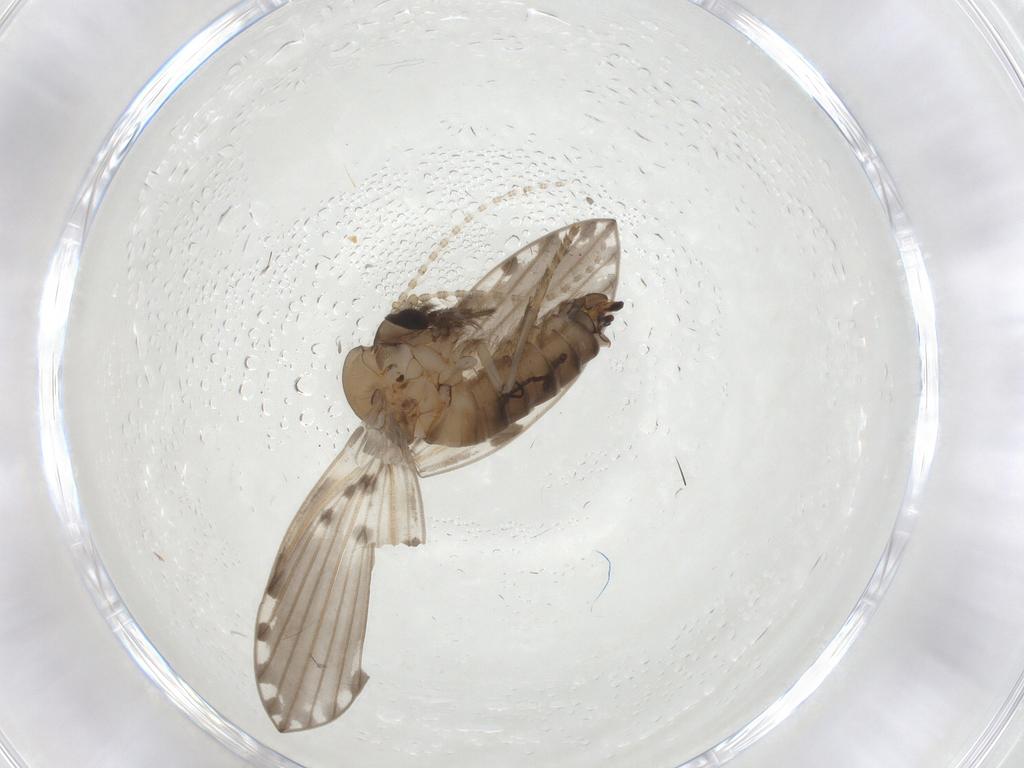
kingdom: Animalia
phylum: Arthropoda
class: Insecta
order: Diptera
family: Psychodidae
